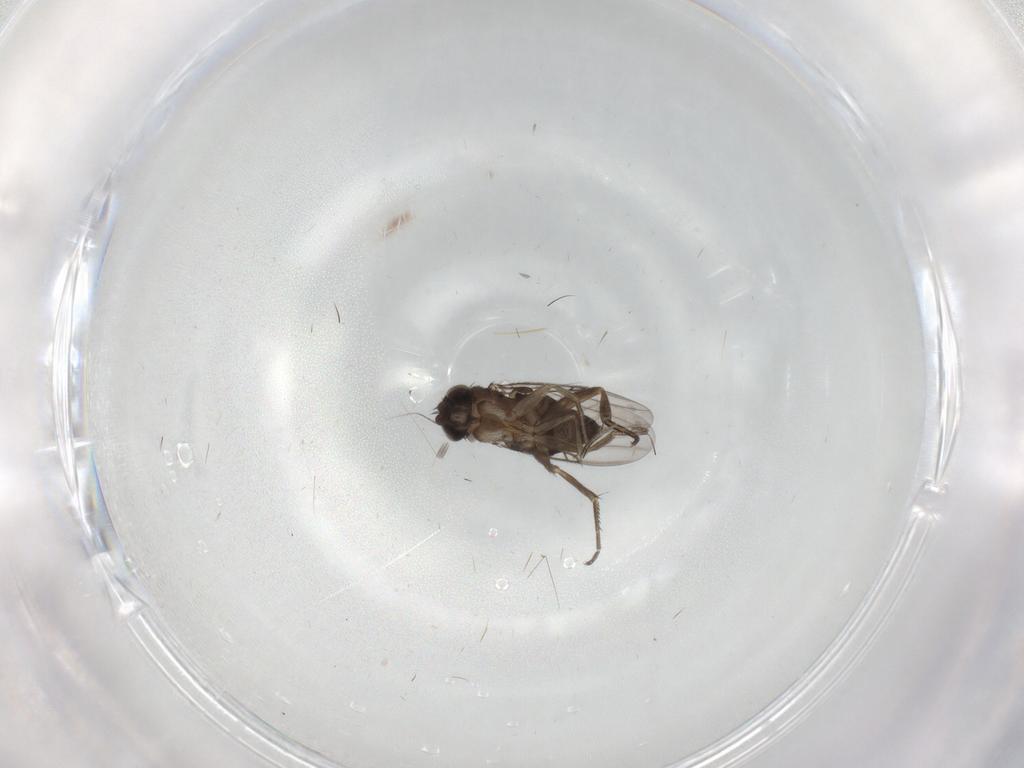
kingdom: Animalia
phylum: Arthropoda
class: Insecta
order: Diptera
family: Phoridae
